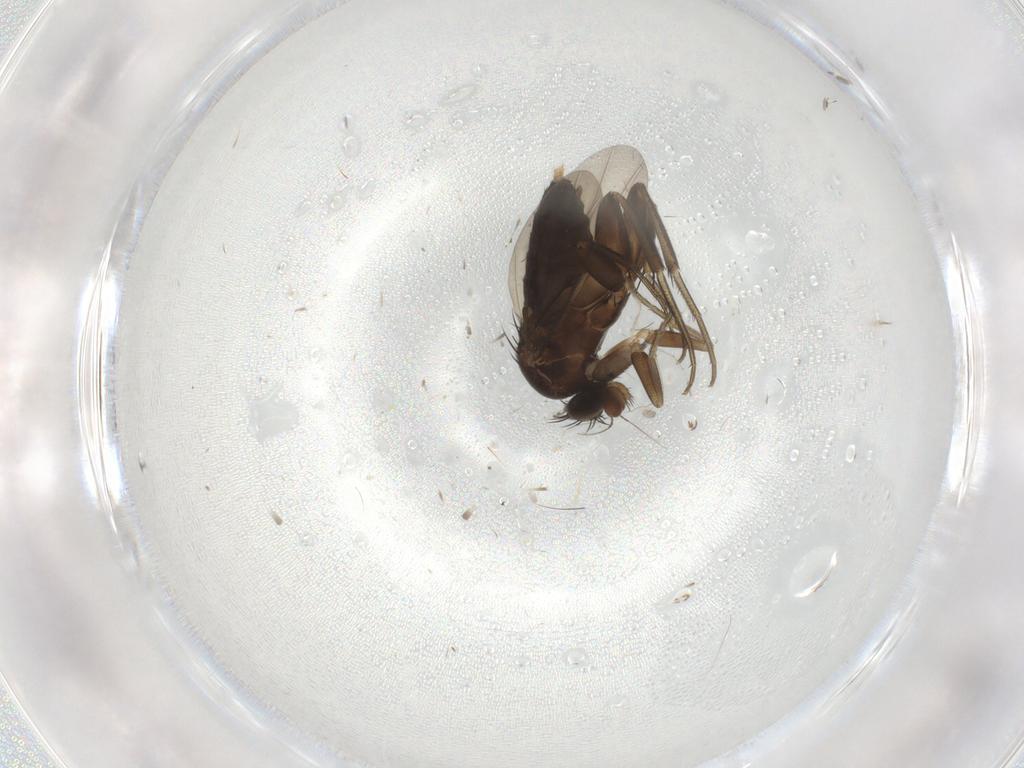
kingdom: Animalia
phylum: Arthropoda
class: Insecta
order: Diptera
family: Phoridae
